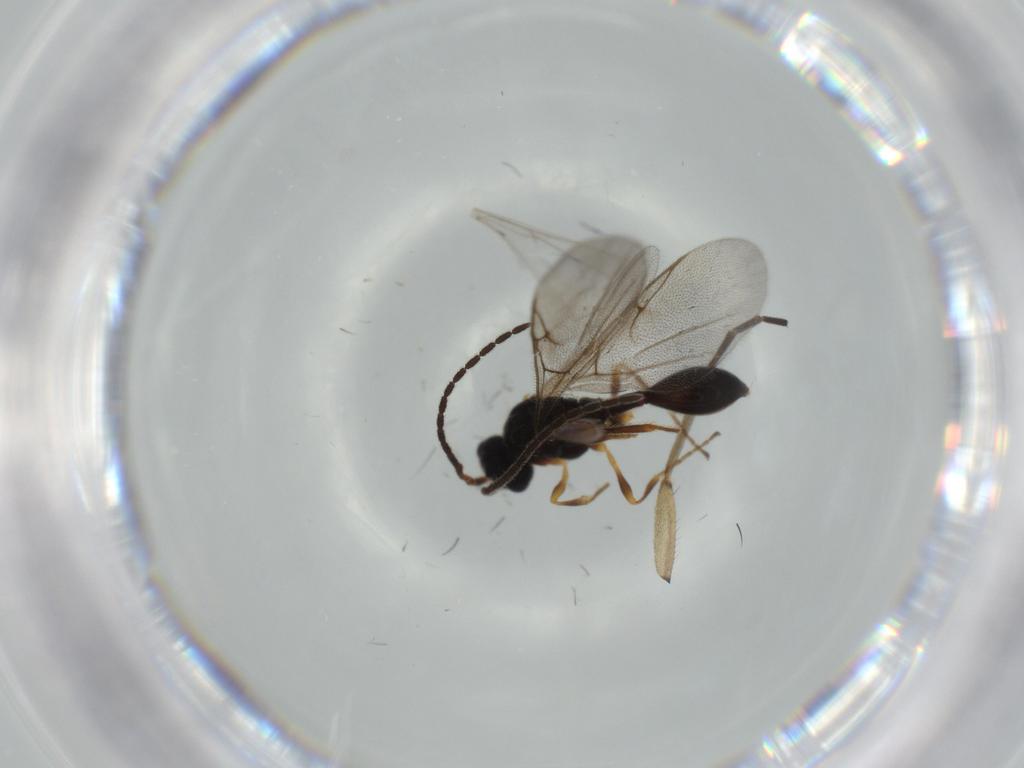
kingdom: Animalia
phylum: Arthropoda
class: Insecta
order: Hymenoptera
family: Diapriidae
